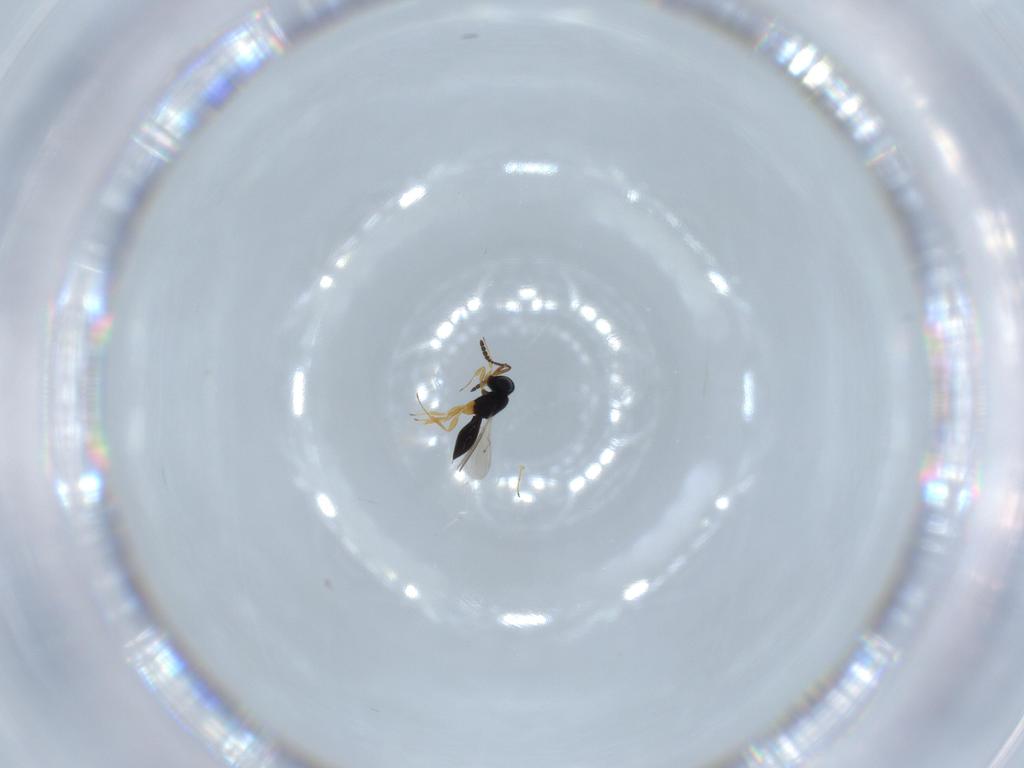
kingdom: Animalia
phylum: Arthropoda
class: Insecta
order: Hymenoptera
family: Scelionidae
